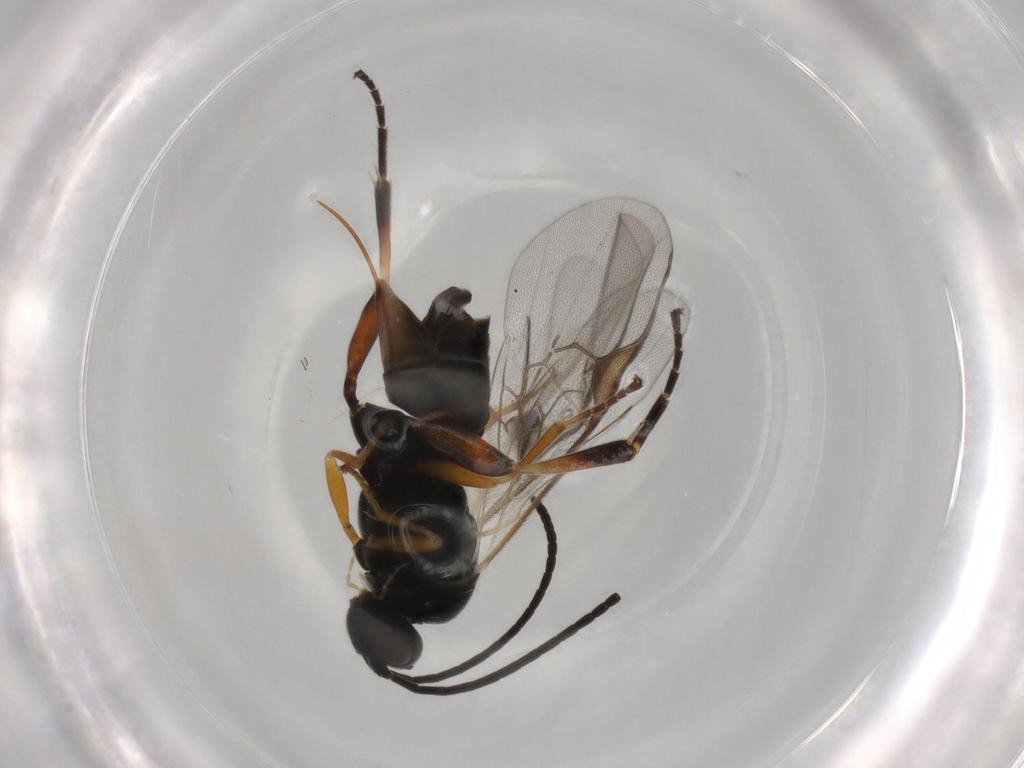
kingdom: Animalia
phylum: Arthropoda
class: Insecta
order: Hymenoptera
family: Braconidae
